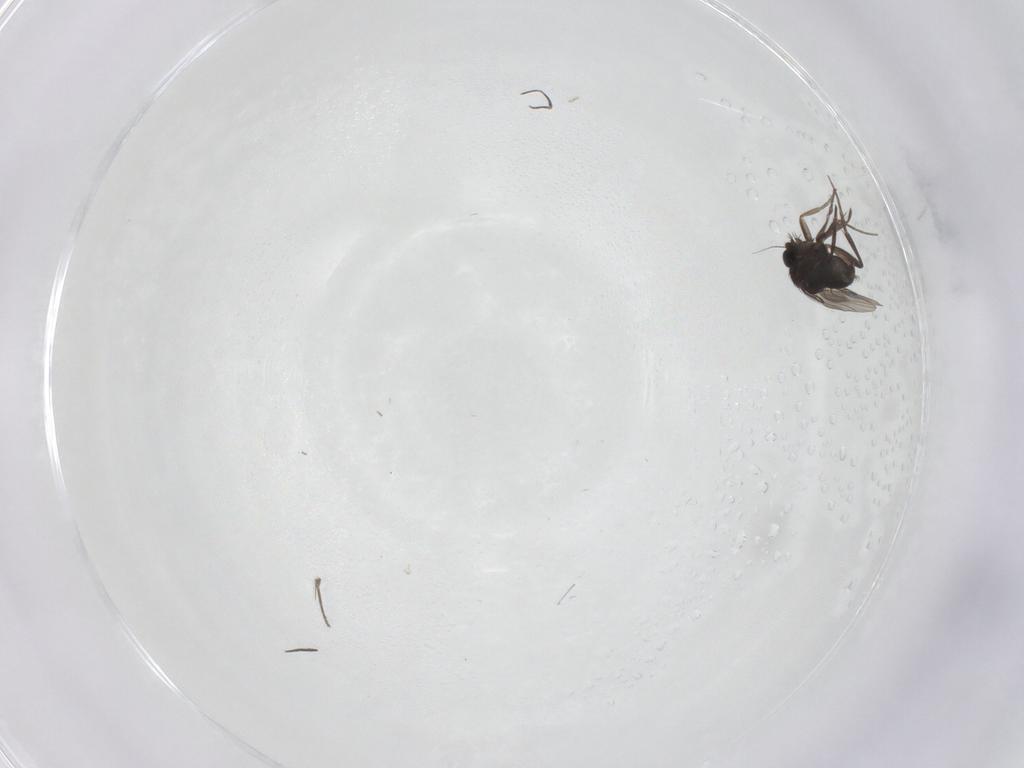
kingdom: Animalia
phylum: Arthropoda
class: Insecta
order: Diptera
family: Phoridae
